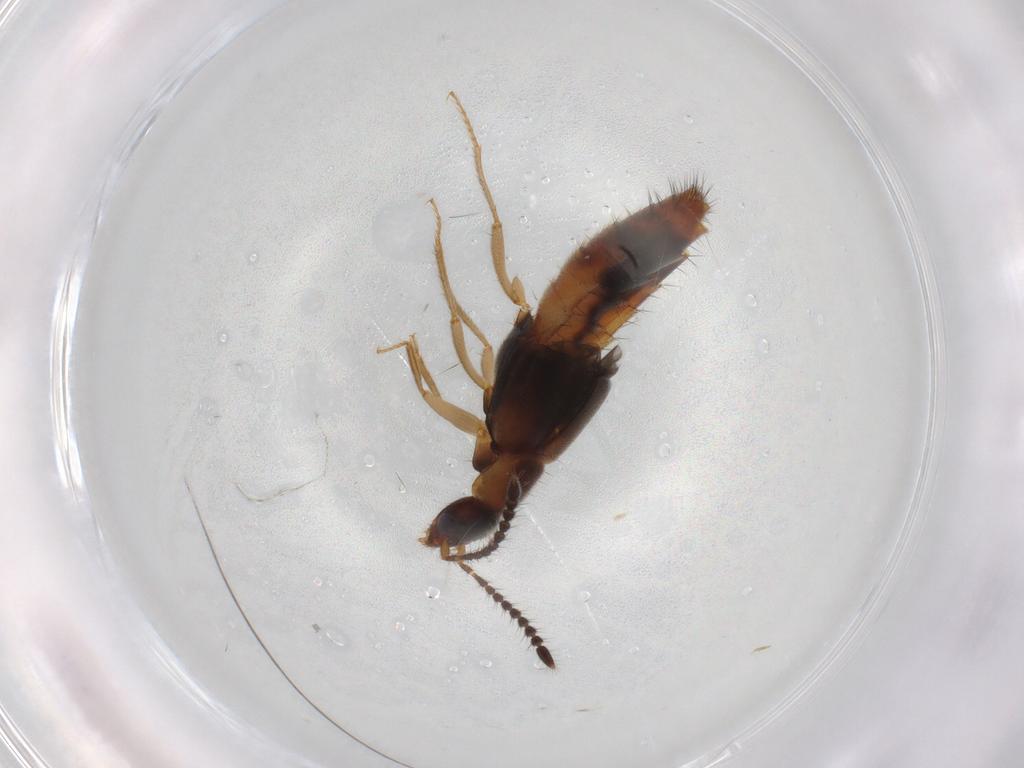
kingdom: Animalia
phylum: Arthropoda
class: Insecta
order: Coleoptera
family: Staphylinidae
